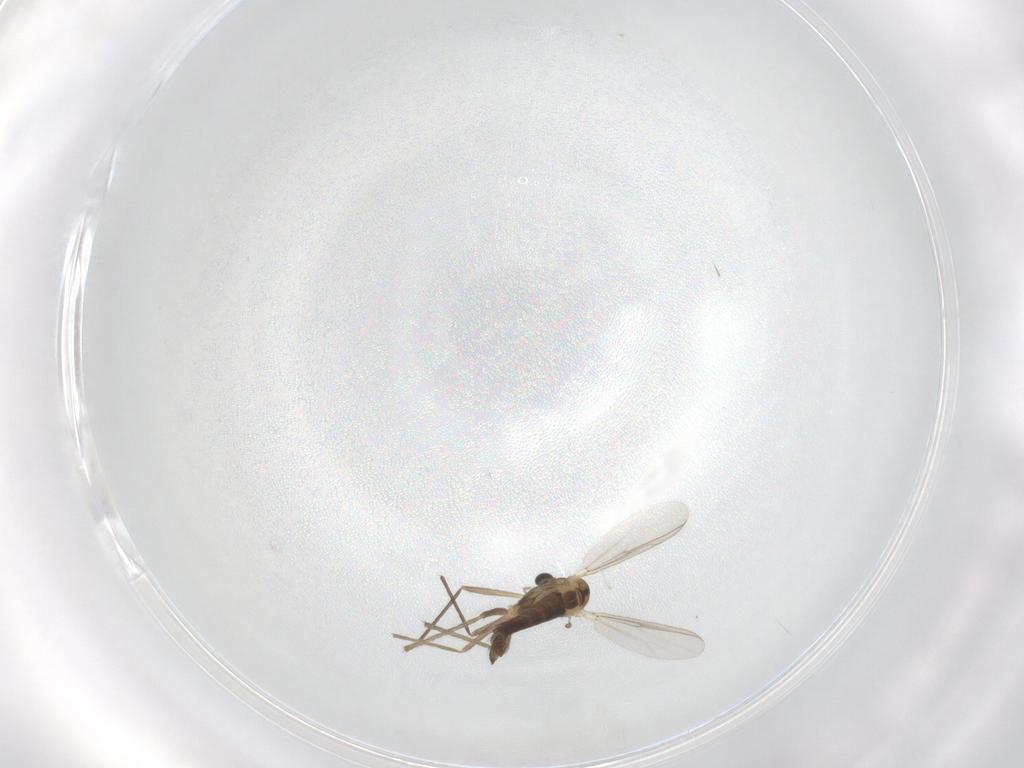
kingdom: Animalia
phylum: Arthropoda
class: Insecta
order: Diptera
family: Chironomidae
